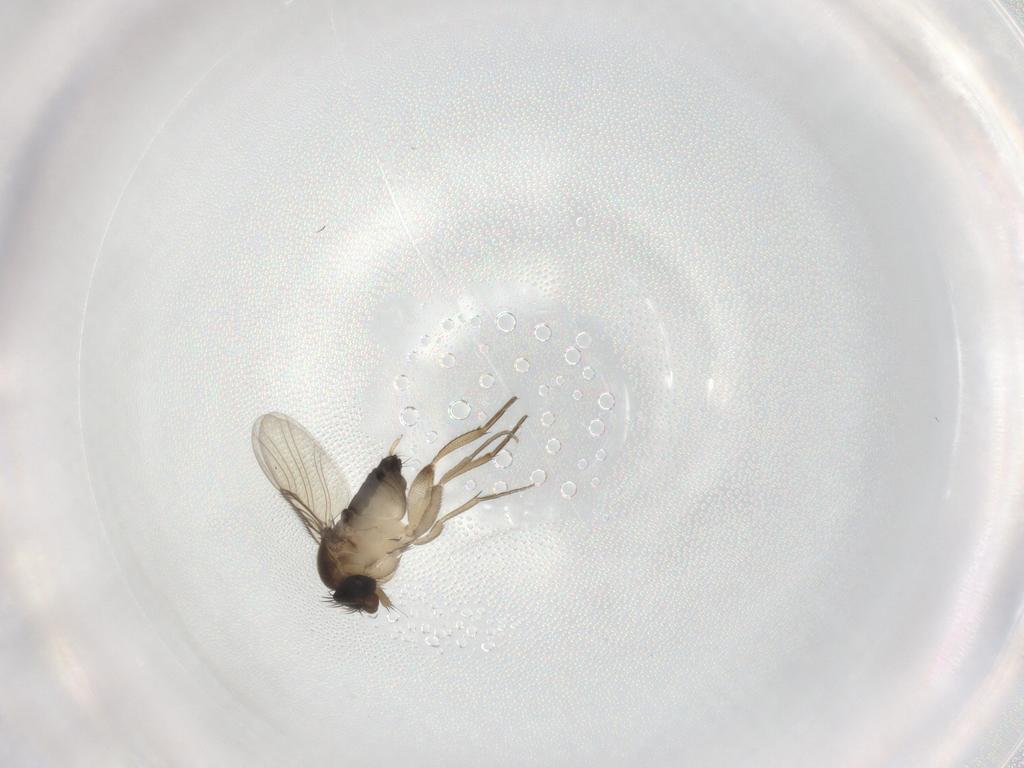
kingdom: Animalia
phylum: Arthropoda
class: Insecta
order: Diptera
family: Phoridae
